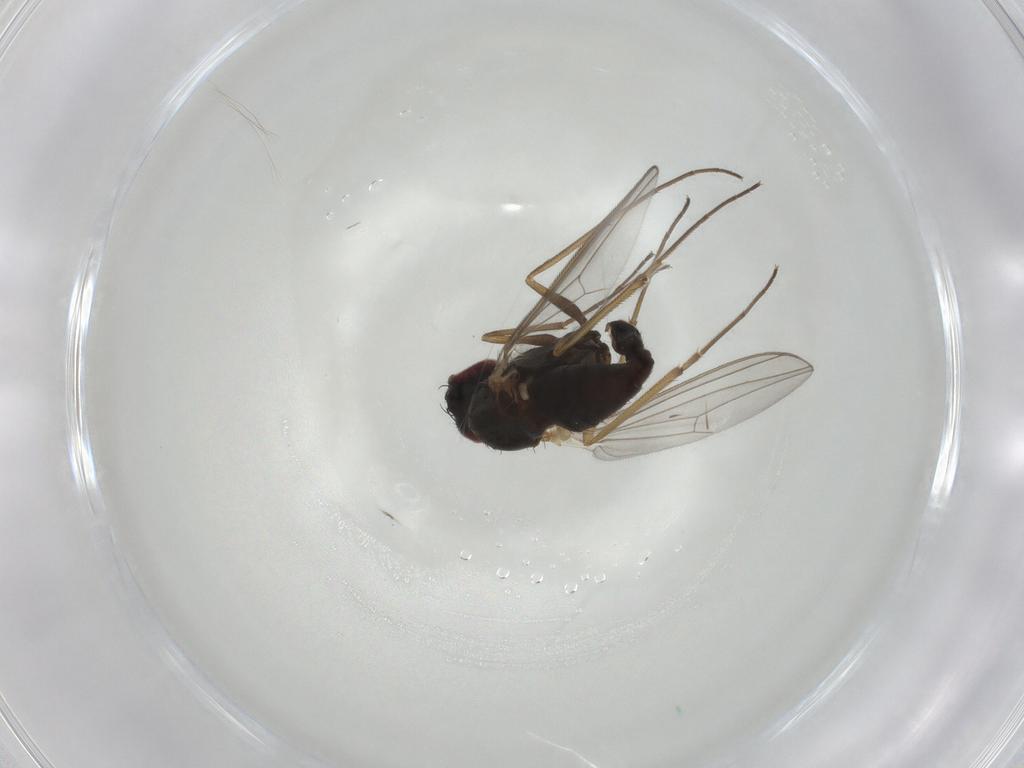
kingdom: Animalia
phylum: Arthropoda
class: Insecta
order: Diptera
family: Dolichopodidae
